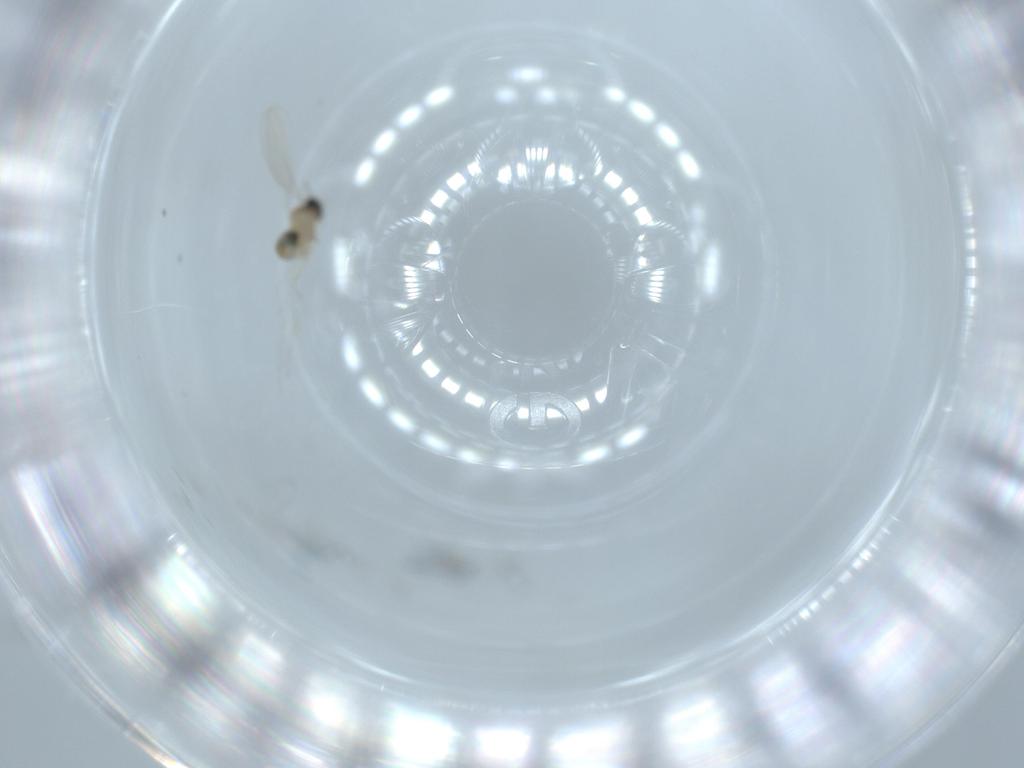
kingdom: Animalia
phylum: Arthropoda
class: Insecta
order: Diptera
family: Cecidomyiidae
